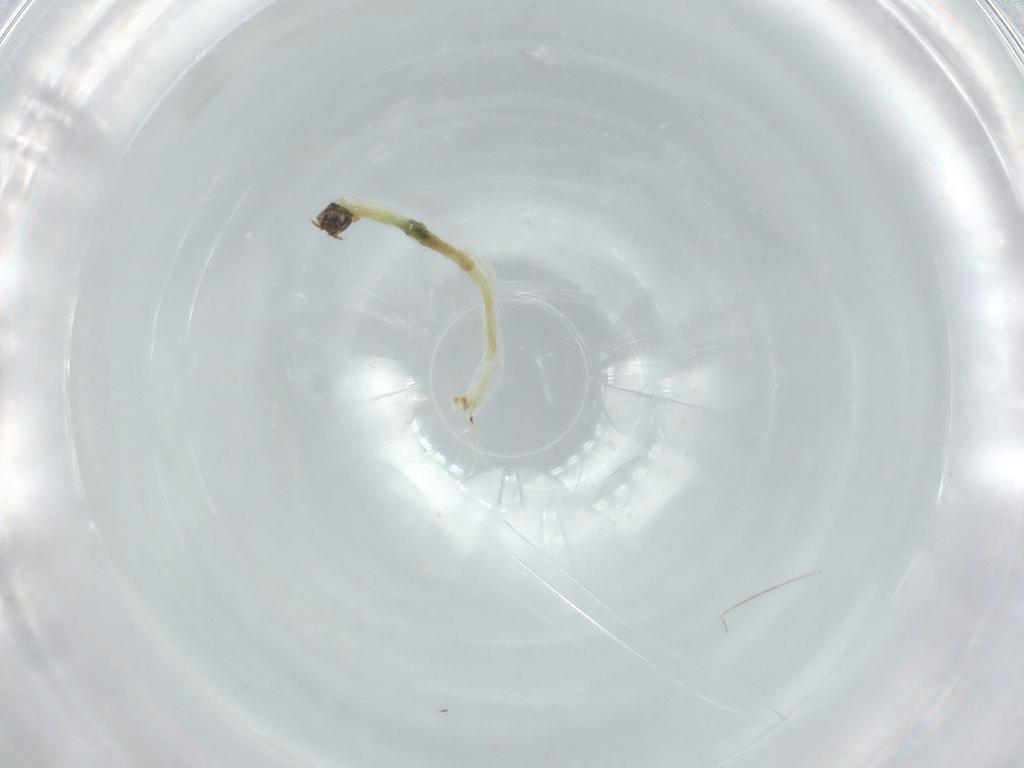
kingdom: Animalia
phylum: Arthropoda
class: Insecta
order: Diptera
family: Chironomidae
